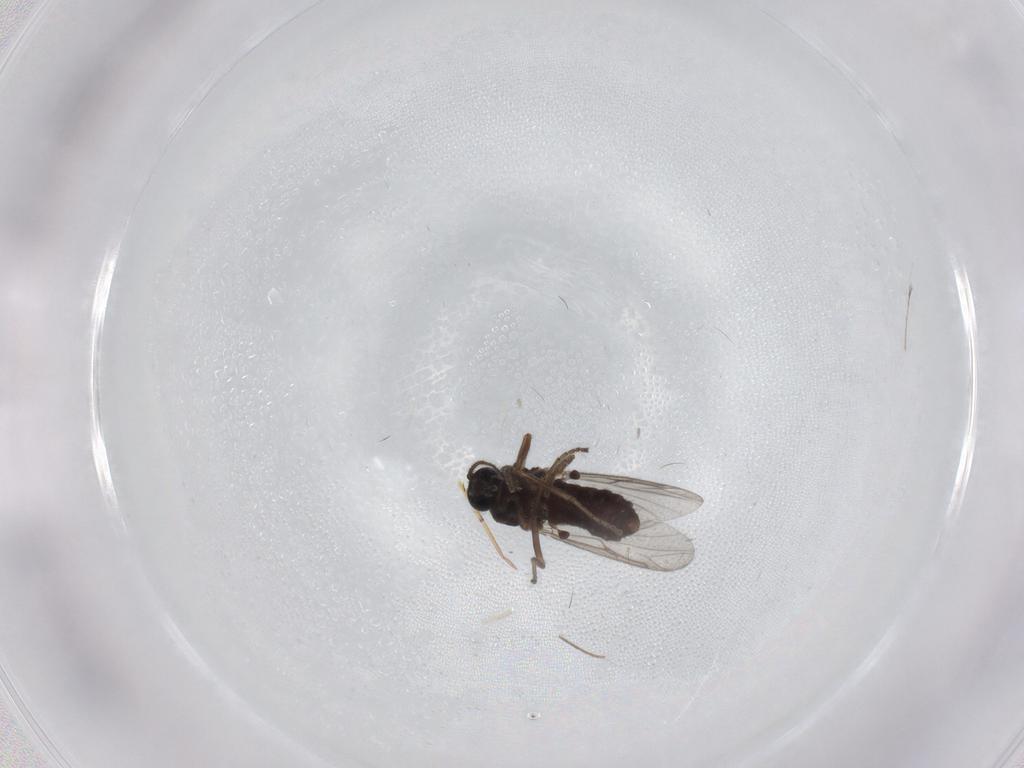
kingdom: Animalia
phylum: Arthropoda
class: Insecta
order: Diptera
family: Ceratopogonidae
